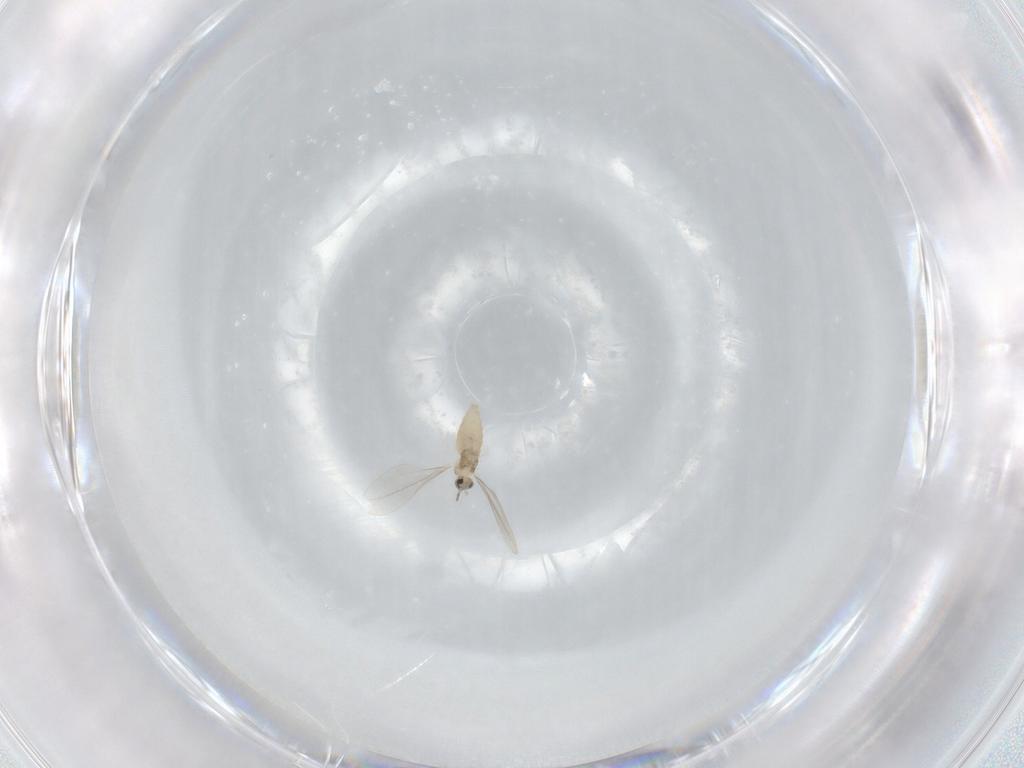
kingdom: Animalia
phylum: Arthropoda
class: Insecta
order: Diptera
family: Cecidomyiidae
